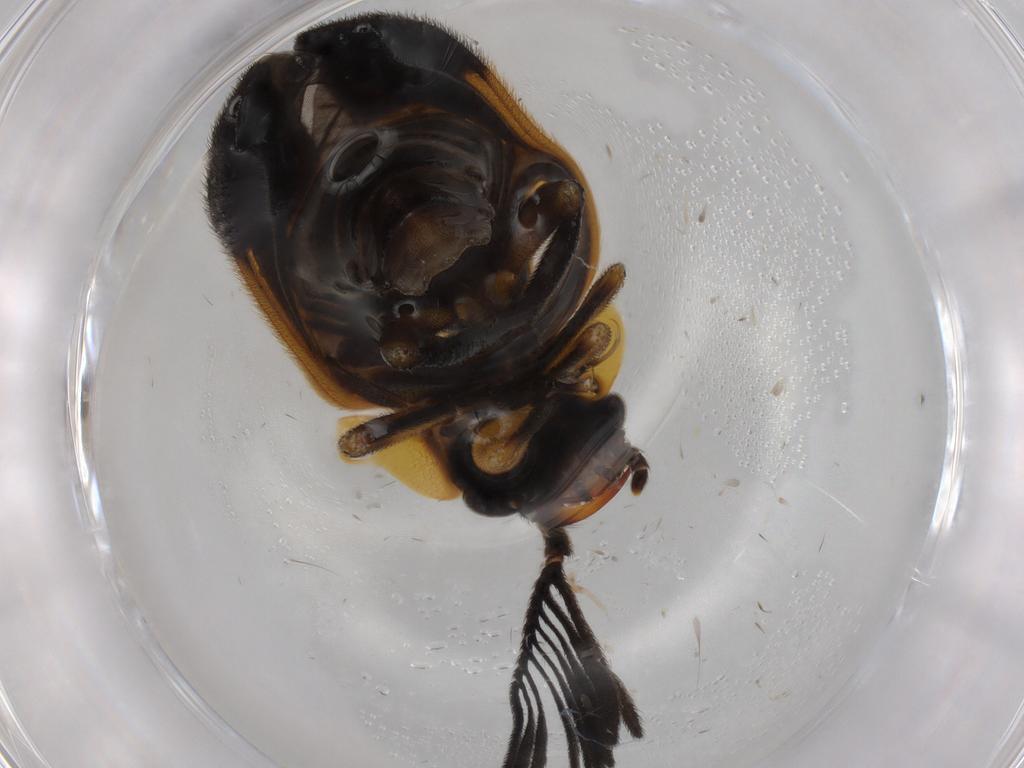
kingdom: Animalia
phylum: Arthropoda
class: Insecta
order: Coleoptera
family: Lampyridae
